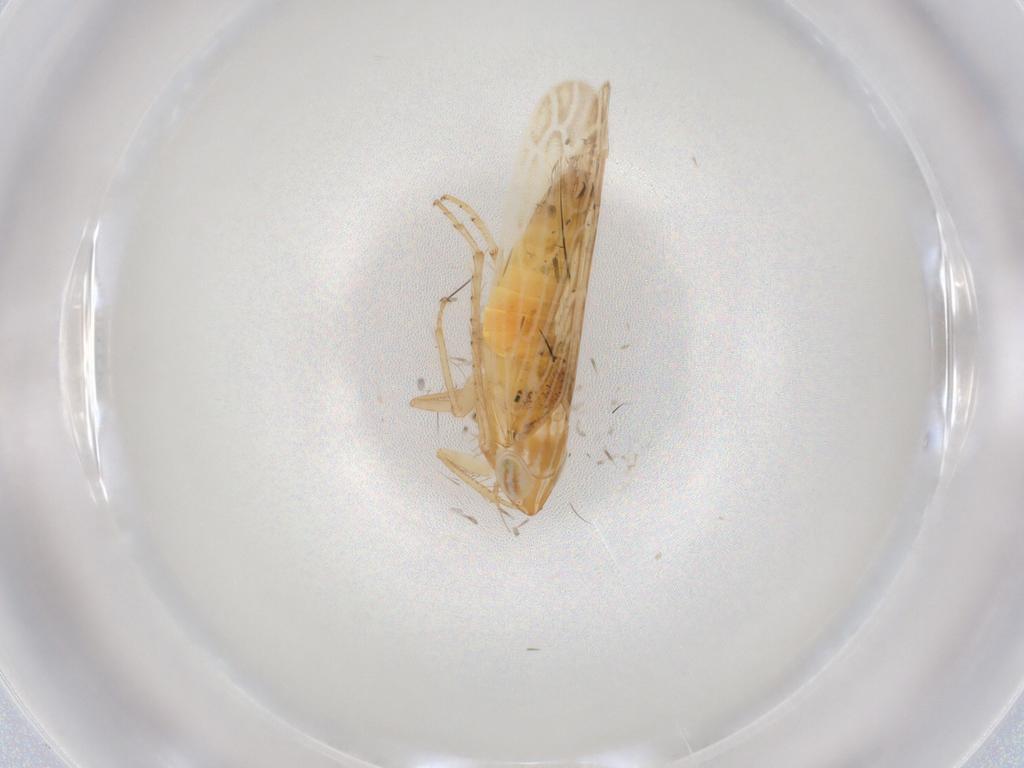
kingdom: Animalia
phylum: Arthropoda
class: Insecta
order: Hemiptera
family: Cicadellidae
